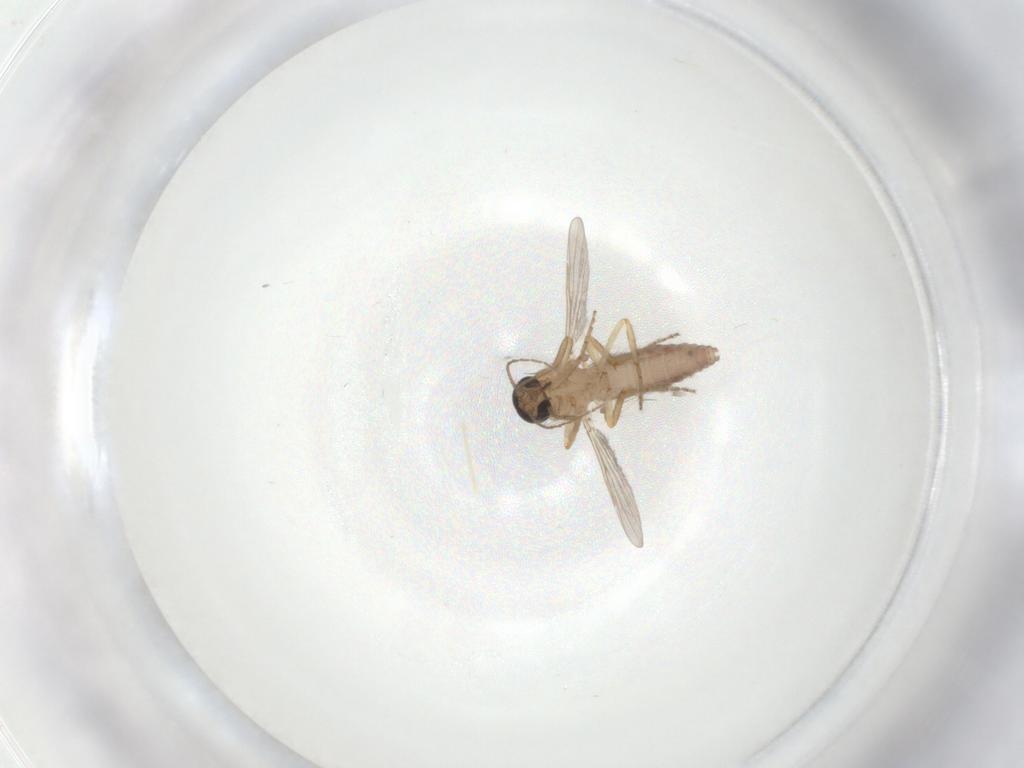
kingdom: Animalia
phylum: Arthropoda
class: Insecta
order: Diptera
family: Ceratopogonidae
